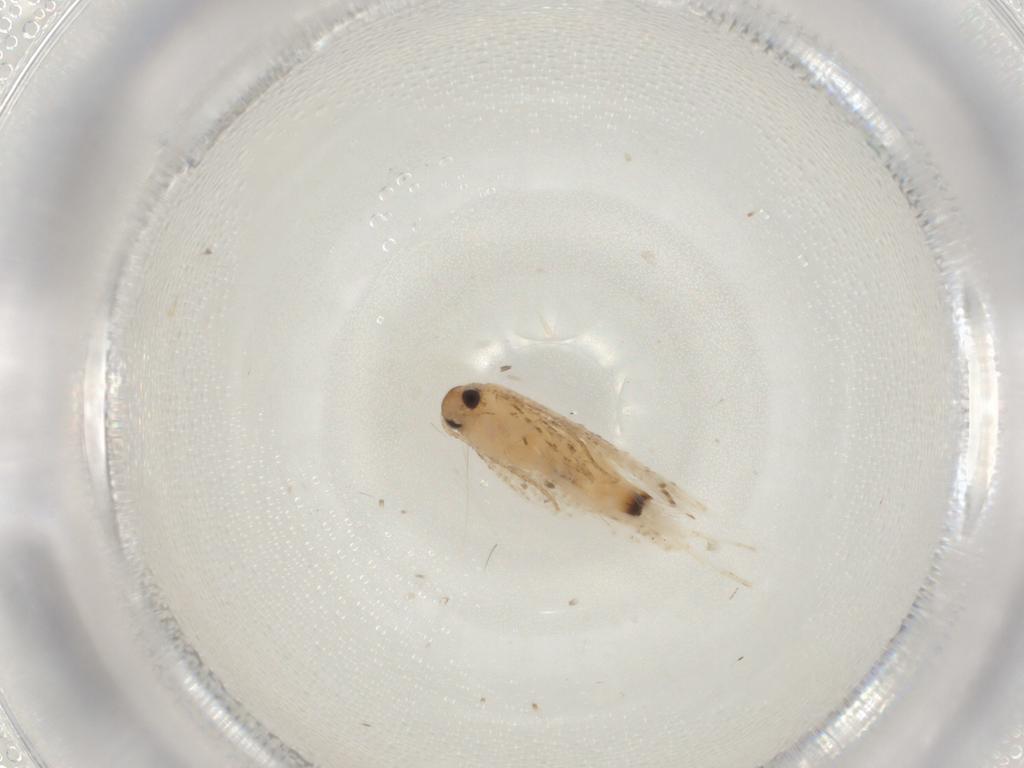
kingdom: Animalia
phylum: Arthropoda
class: Insecta
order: Lepidoptera
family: Gelechiidae
